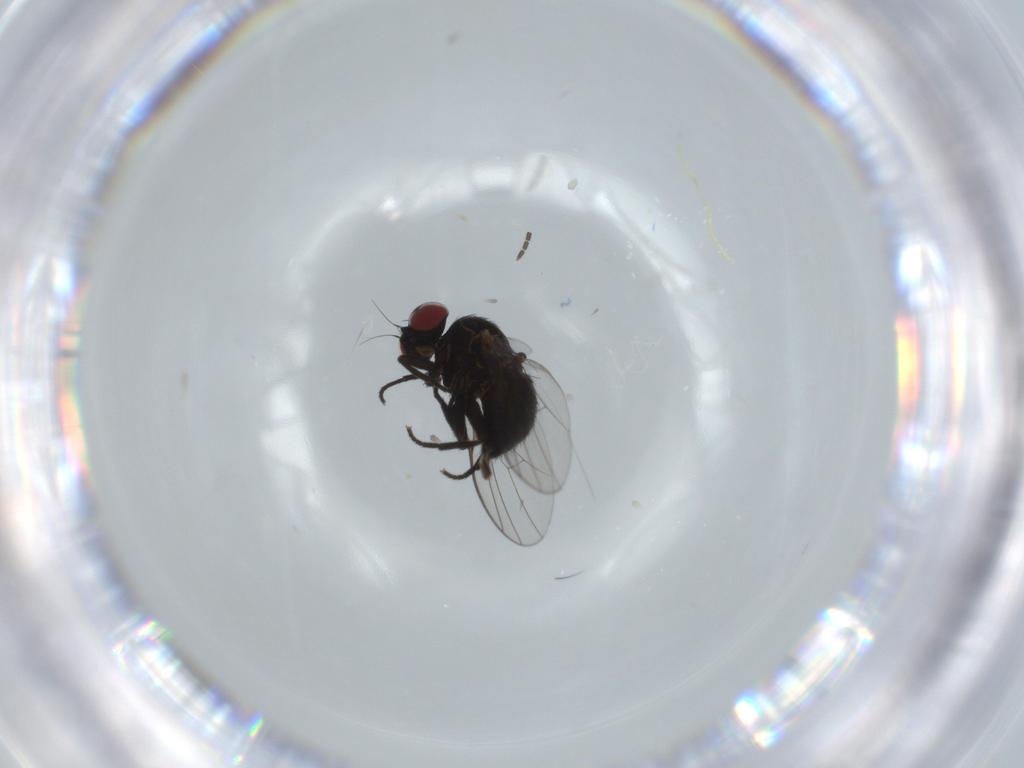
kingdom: Animalia
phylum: Arthropoda
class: Insecta
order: Diptera
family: Agromyzidae
